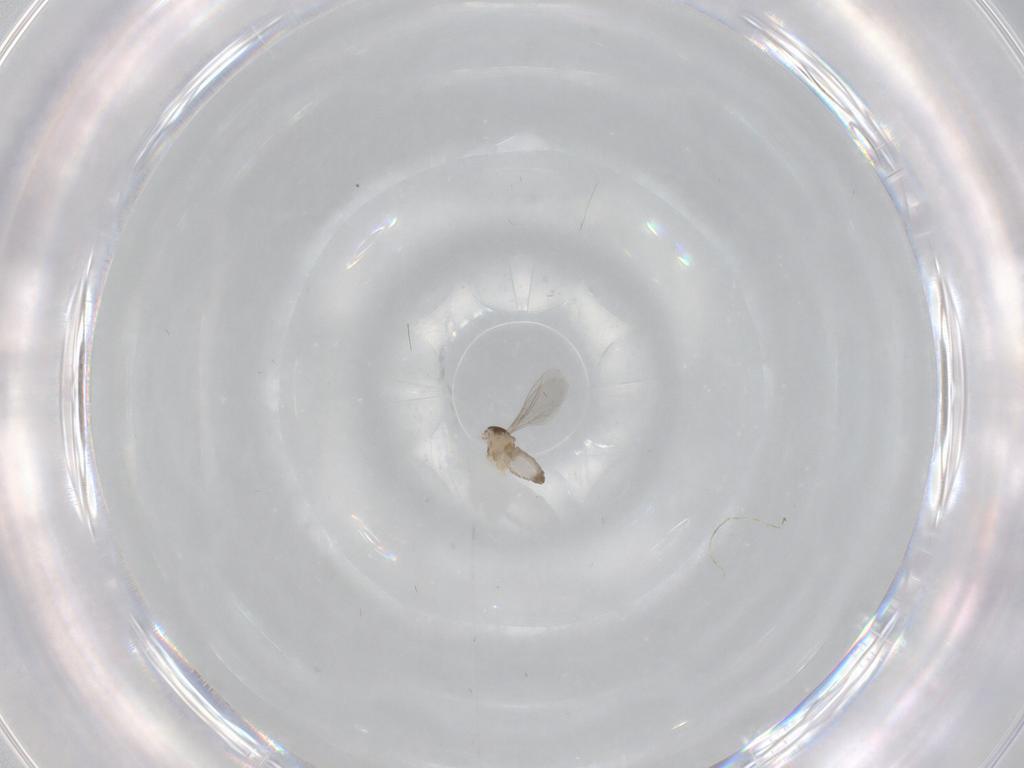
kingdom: Animalia
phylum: Arthropoda
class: Insecta
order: Diptera
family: Cecidomyiidae
